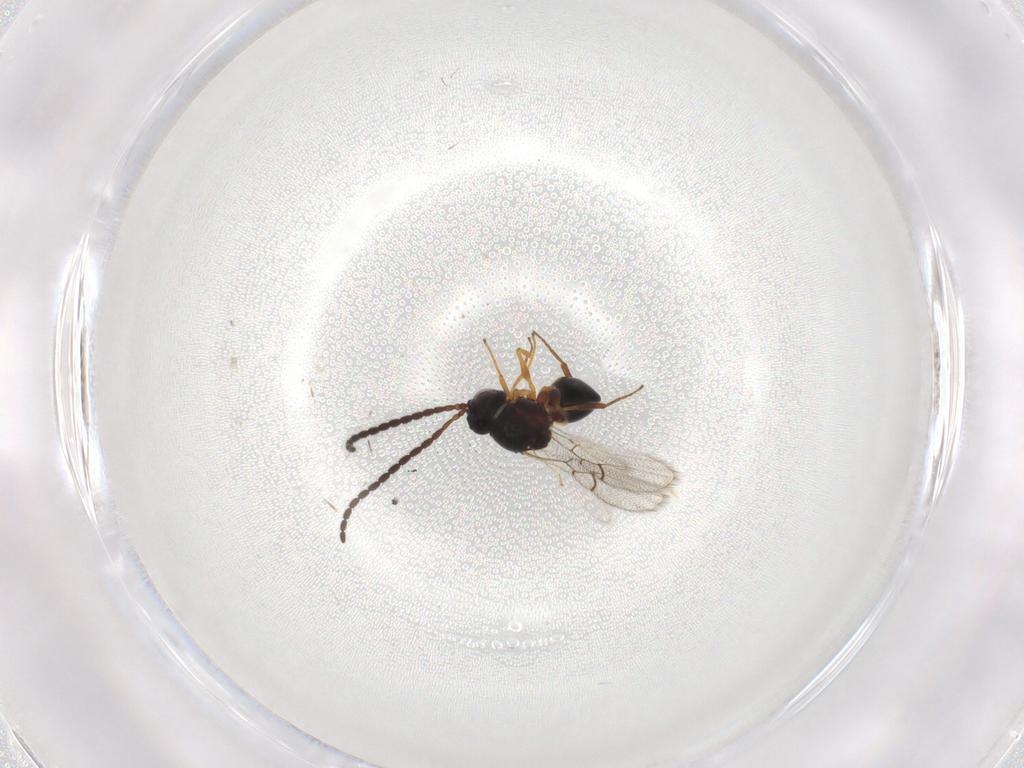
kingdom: Animalia
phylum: Arthropoda
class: Insecta
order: Hymenoptera
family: Figitidae
